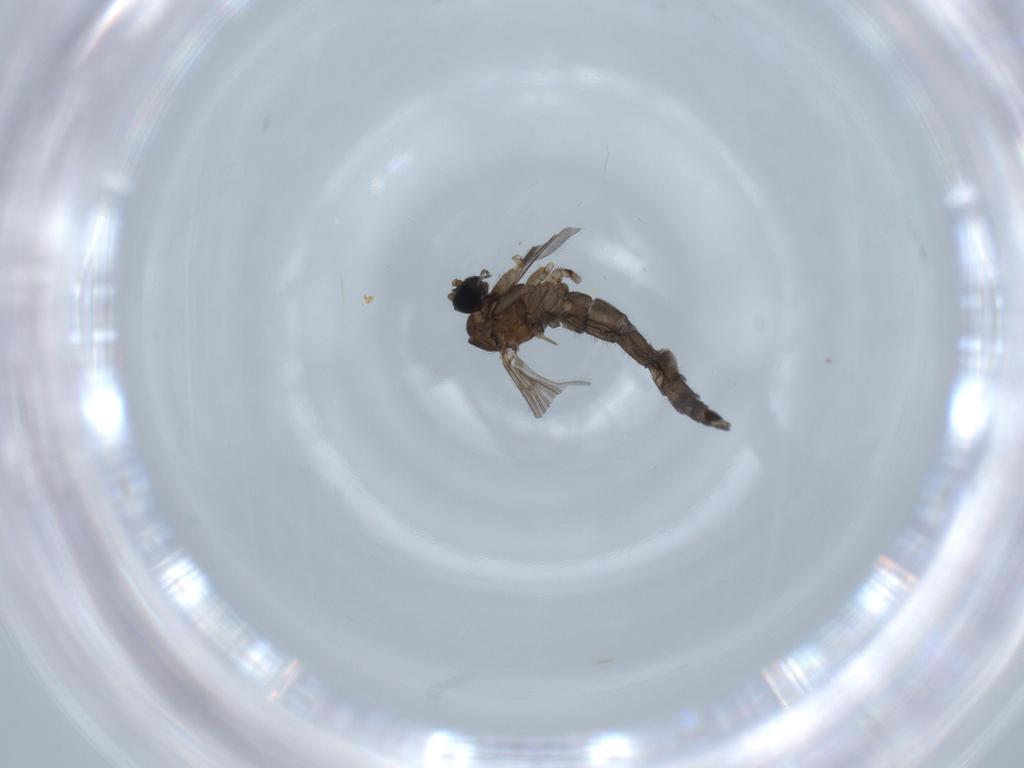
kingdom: Animalia
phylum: Arthropoda
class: Insecta
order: Diptera
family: Sciaridae
